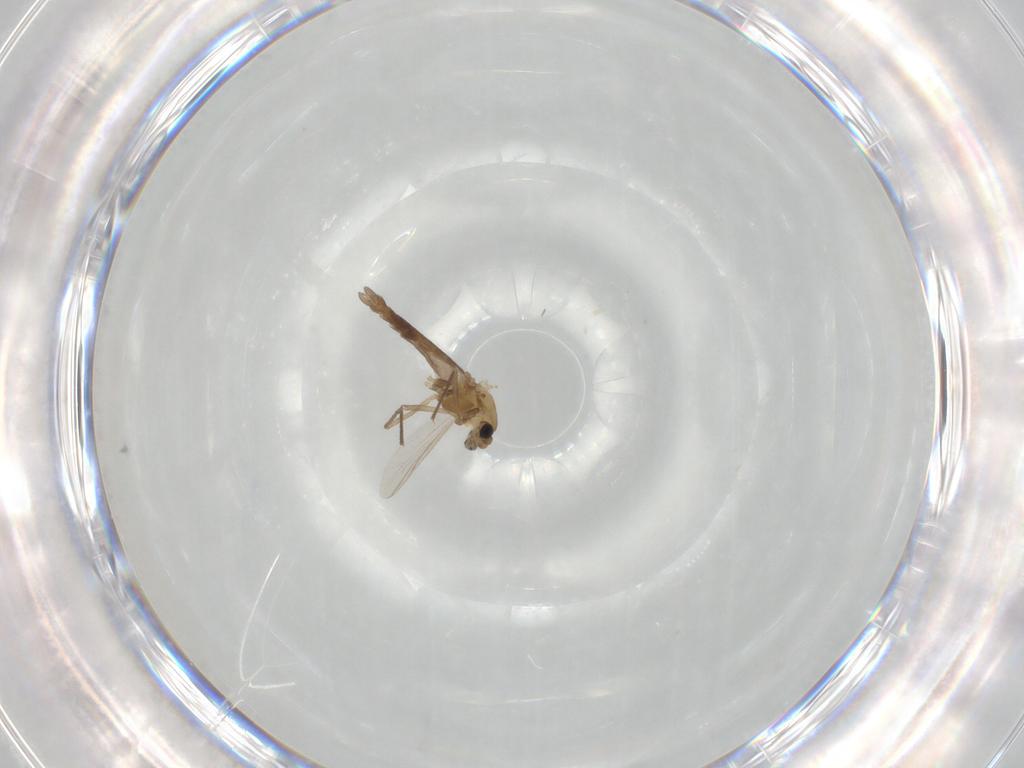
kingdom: Animalia
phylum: Arthropoda
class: Insecta
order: Diptera
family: Chironomidae
